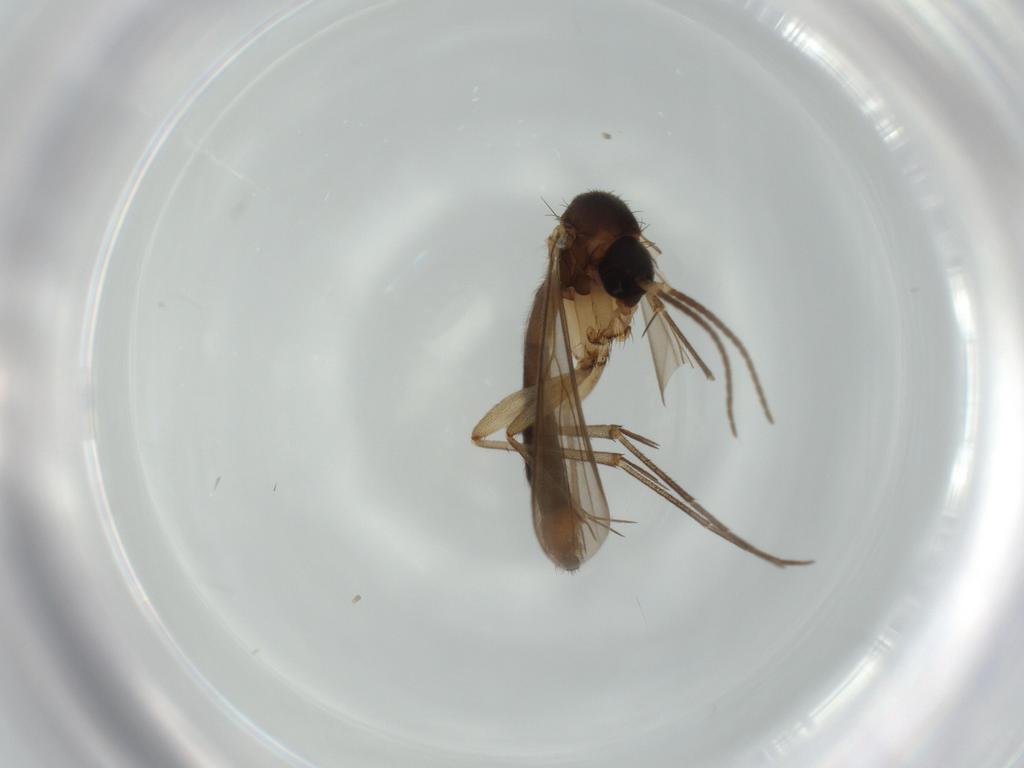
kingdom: Animalia
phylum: Arthropoda
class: Insecta
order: Diptera
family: Mycetophilidae
